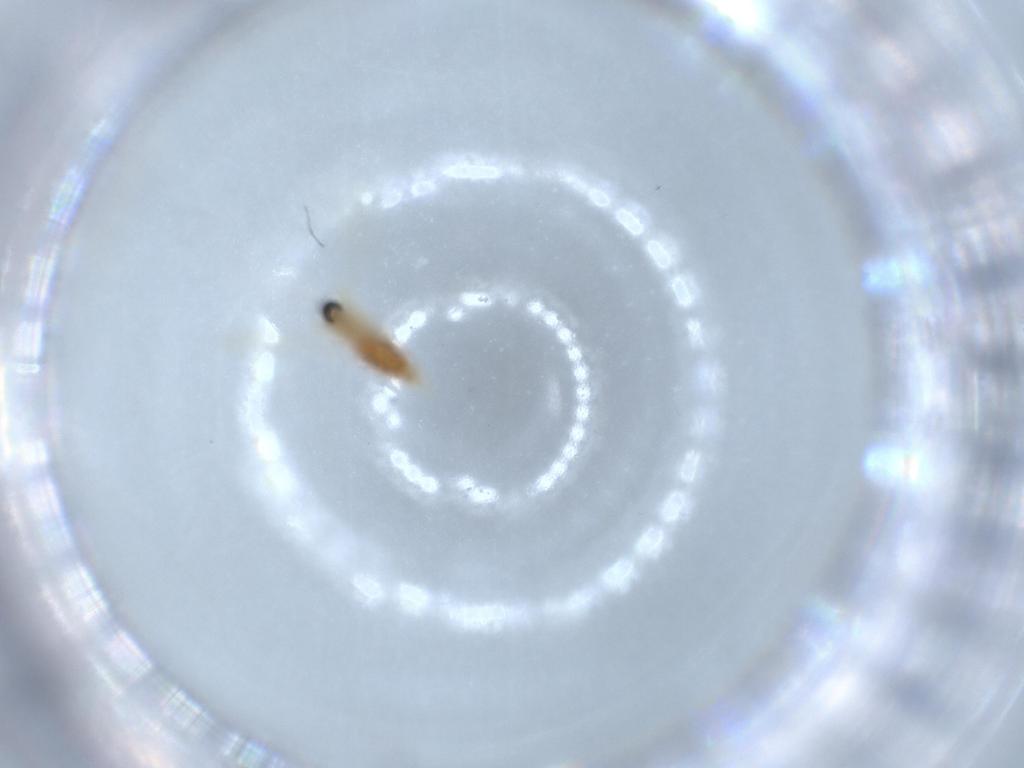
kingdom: Animalia
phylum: Arthropoda
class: Insecta
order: Diptera
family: Cecidomyiidae
